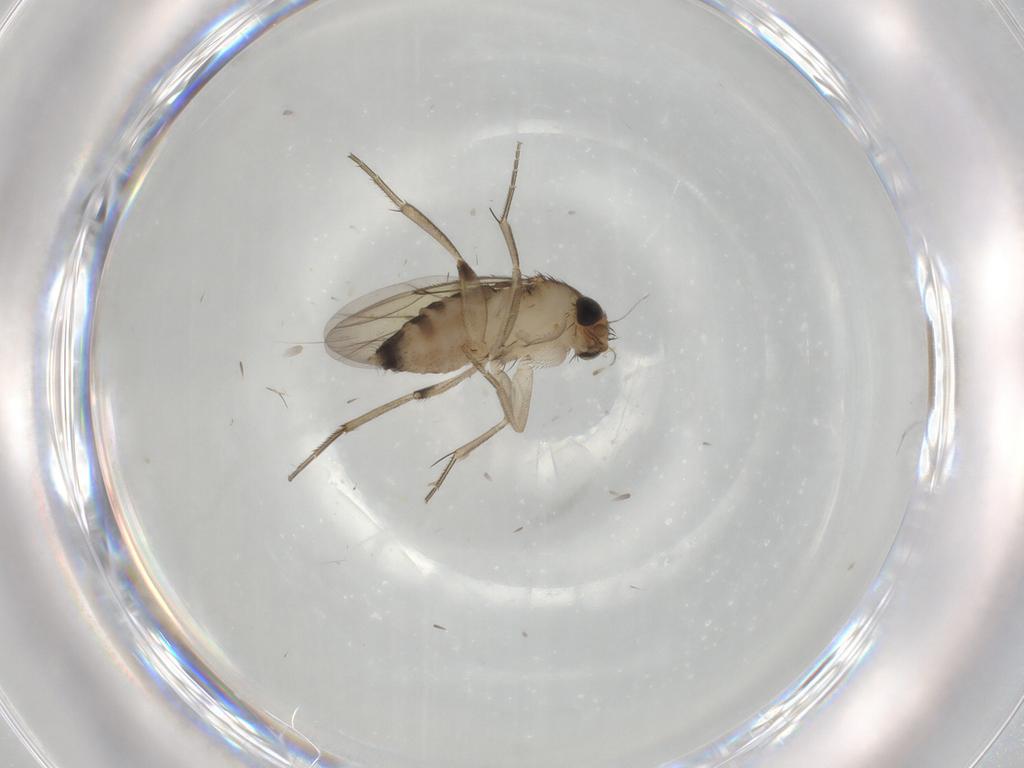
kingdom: Animalia
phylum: Arthropoda
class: Insecta
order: Diptera
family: Phoridae
